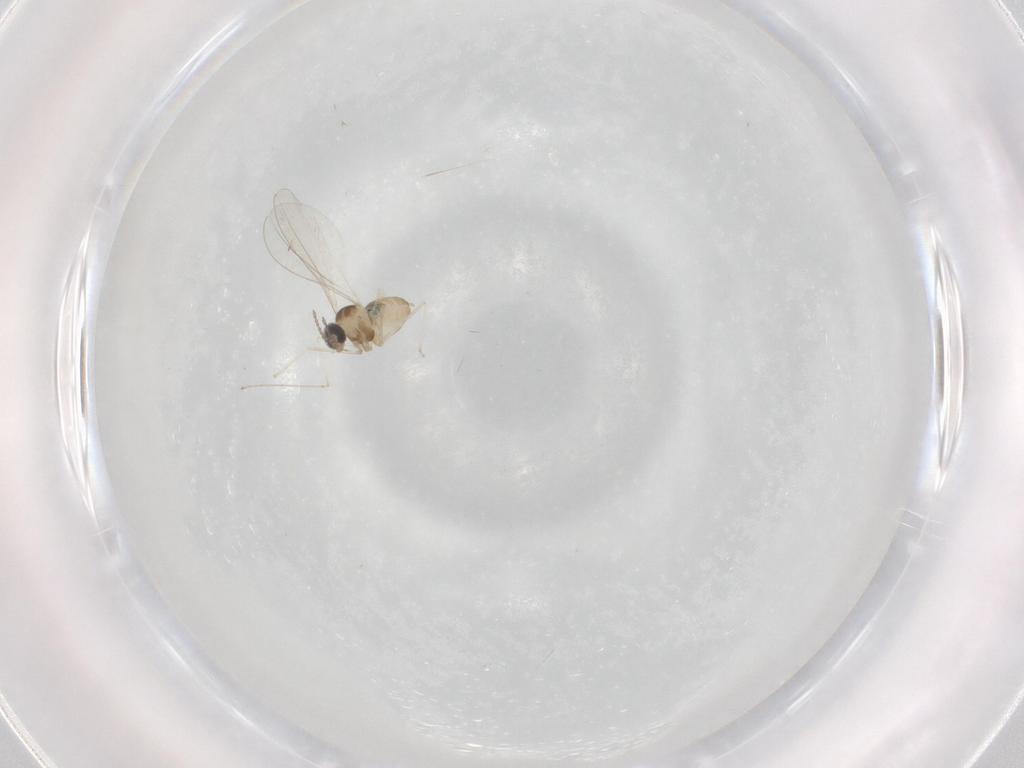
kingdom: Animalia
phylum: Arthropoda
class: Insecta
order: Diptera
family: Cecidomyiidae
